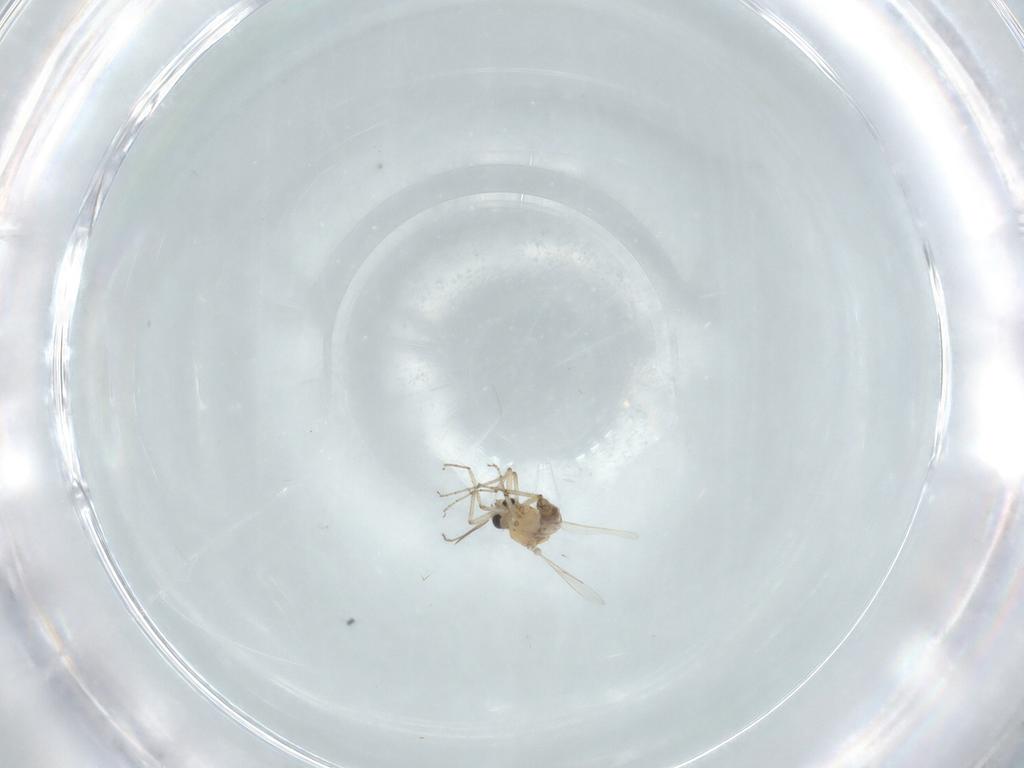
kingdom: Animalia
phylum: Arthropoda
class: Insecta
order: Diptera
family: Ceratopogonidae
